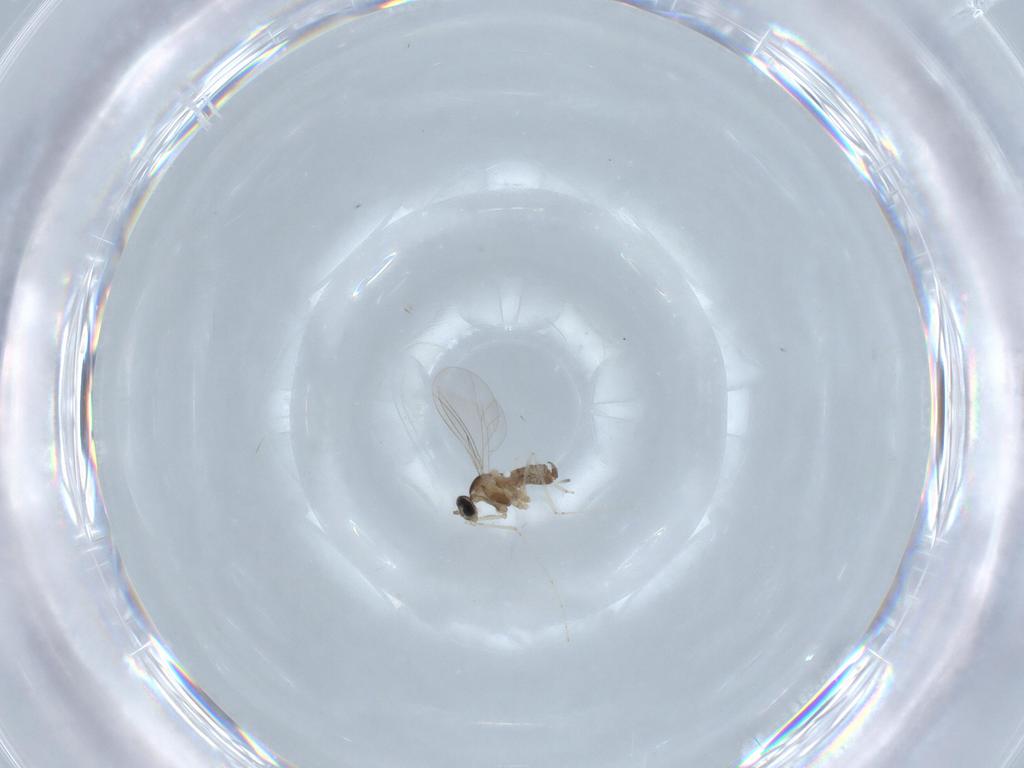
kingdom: Animalia
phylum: Arthropoda
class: Insecta
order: Diptera
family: Cecidomyiidae
